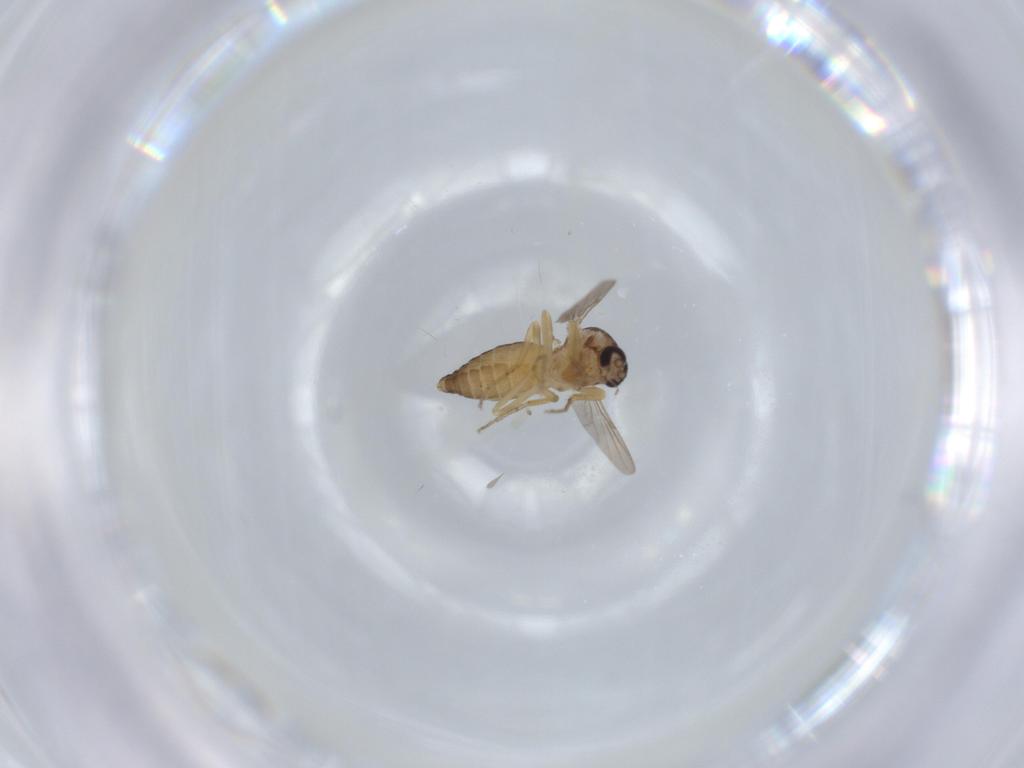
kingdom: Animalia
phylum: Arthropoda
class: Insecta
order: Diptera
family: Ceratopogonidae
